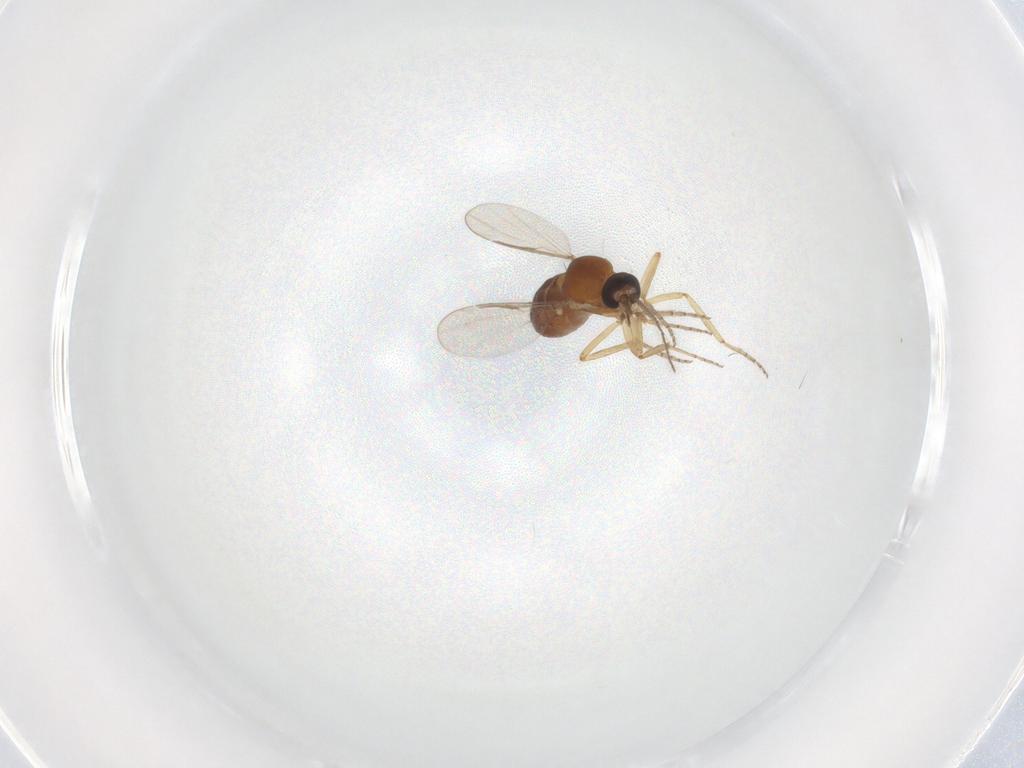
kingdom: Animalia
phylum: Arthropoda
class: Insecta
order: Diptera
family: Ceratopogonidae
